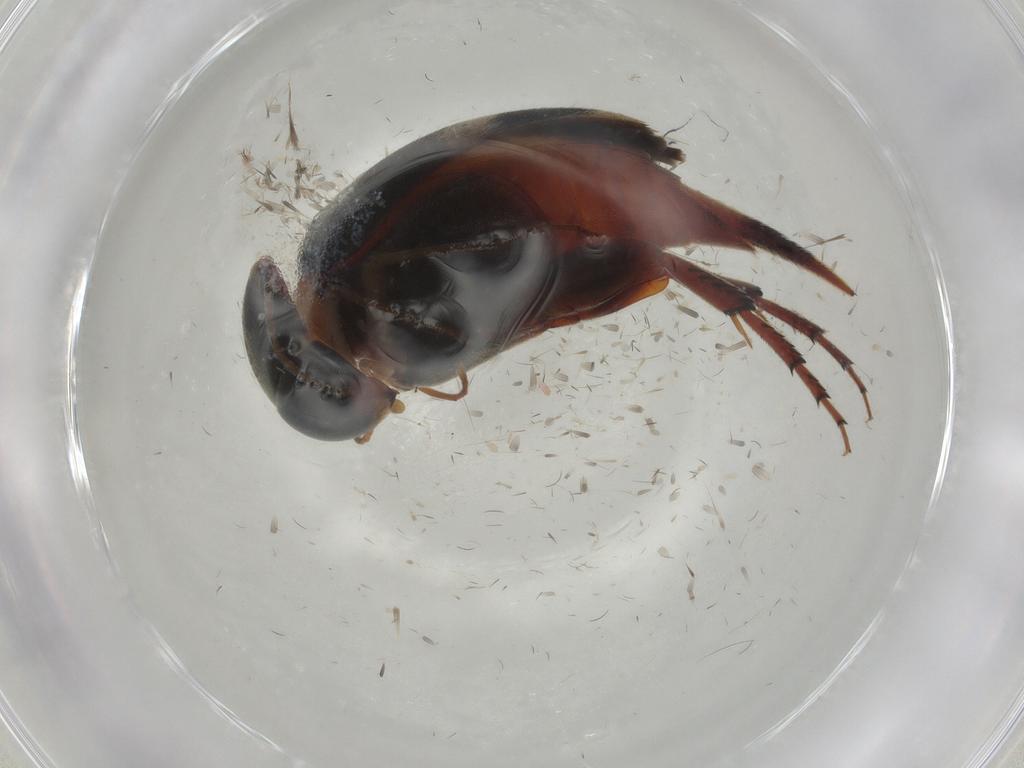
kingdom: Animalia
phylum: Arthropoda
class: Insecta
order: Coleoptera
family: Mordellidae
